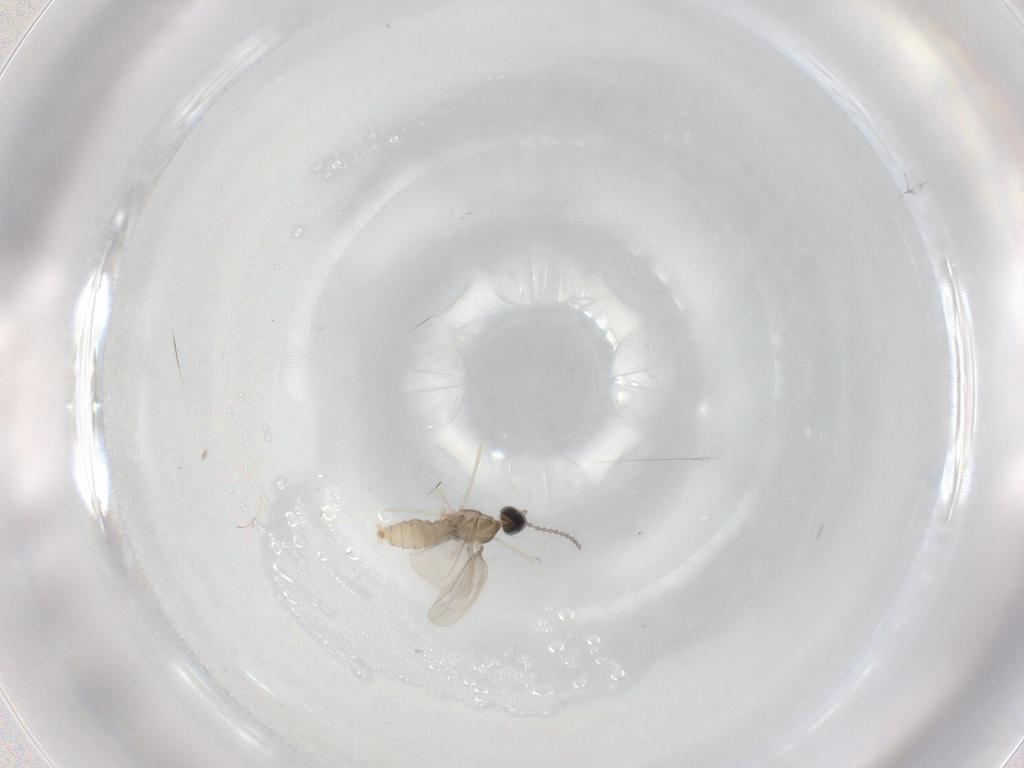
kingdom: Animalia
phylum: Arthropoda
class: Insecta
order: Diptera
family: Cecidomyiidae
